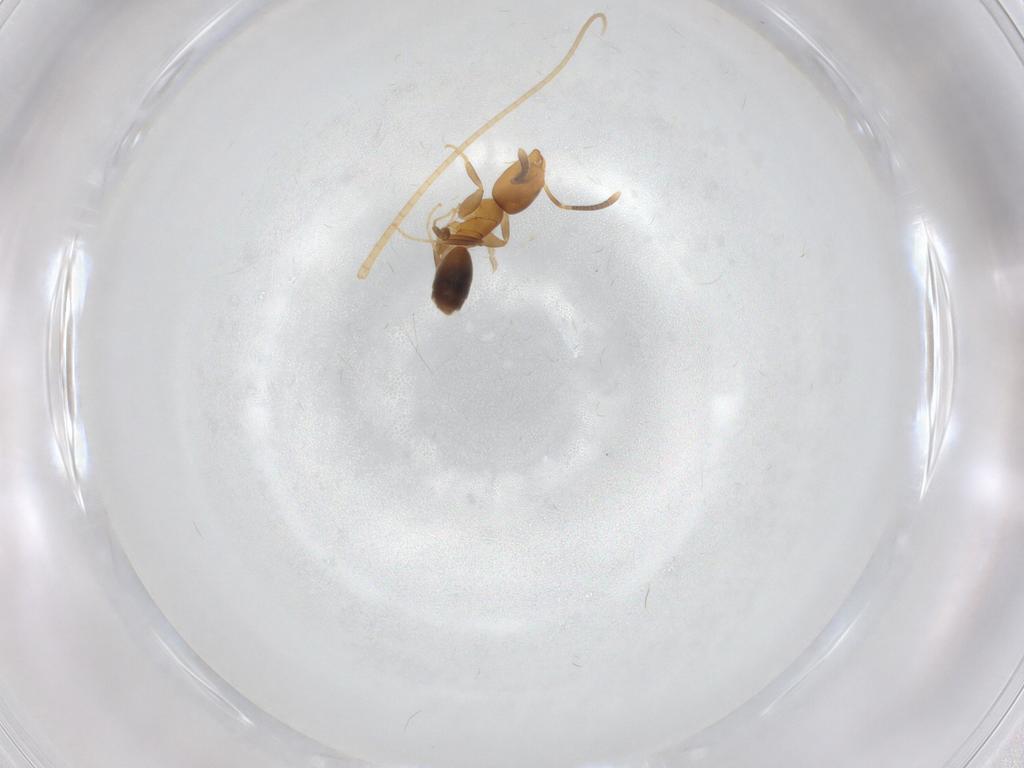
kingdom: Animalia
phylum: Arthropoda
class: Insecta
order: Hymenoptera
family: Formicidae
